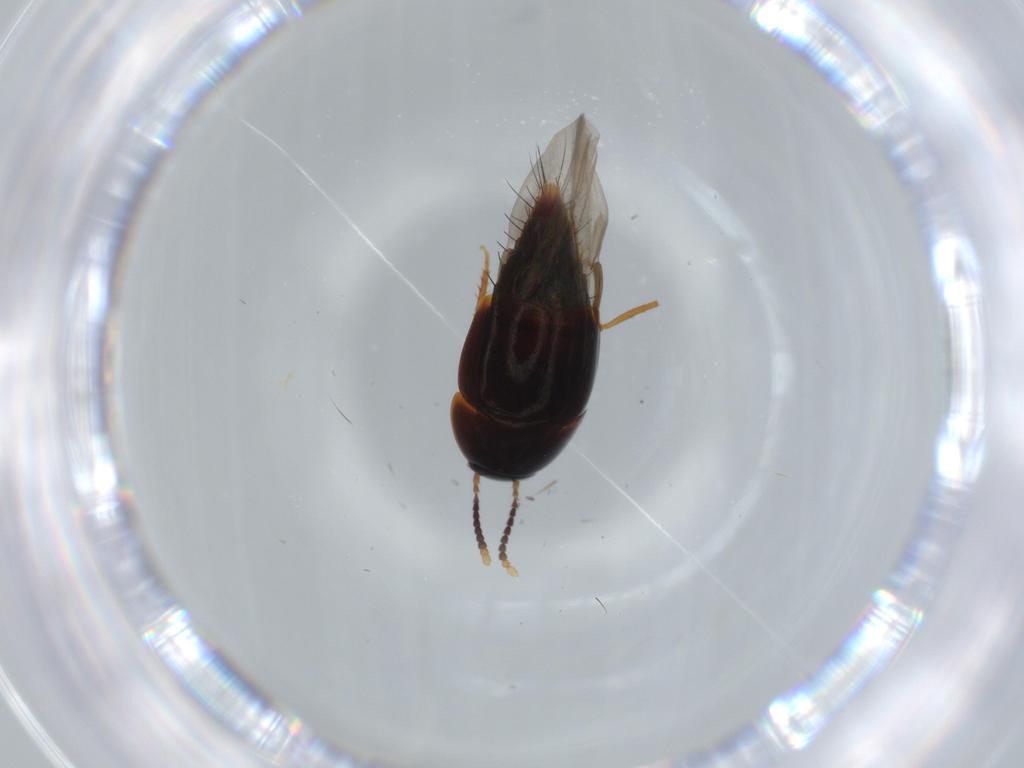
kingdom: Animalia
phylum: Arthropoda
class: Insecta
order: Coleoptera
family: Staphylinidae
